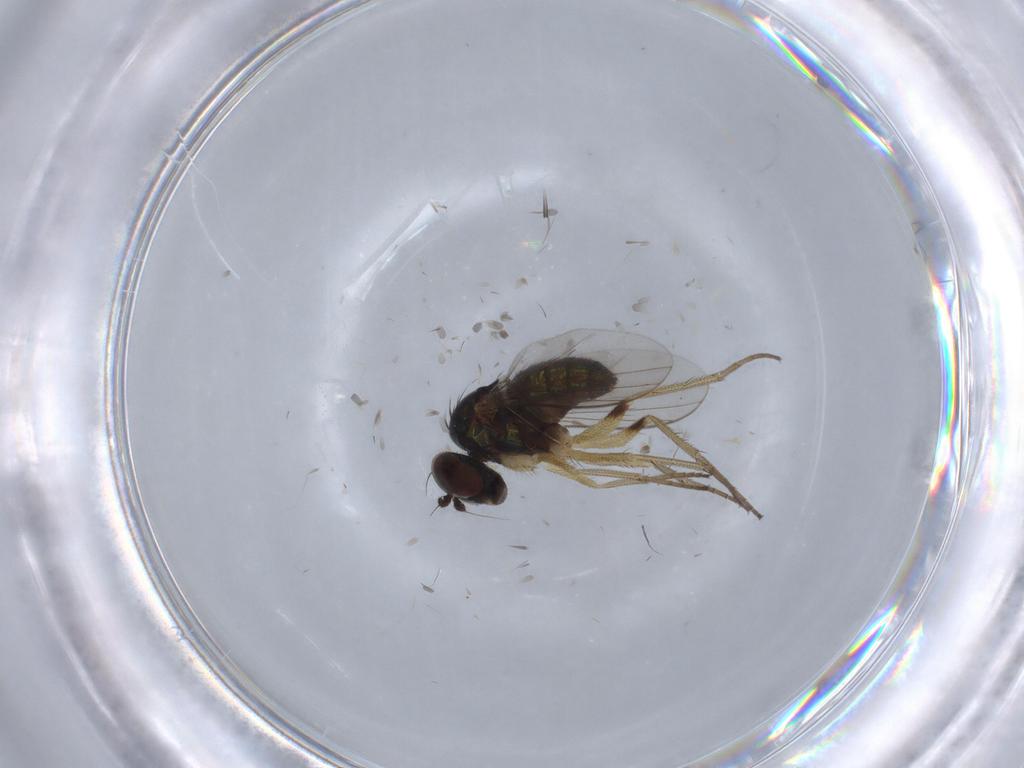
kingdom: Animalia
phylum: Arthropoda
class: Insecta
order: Diptera
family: Dolichopodidae
